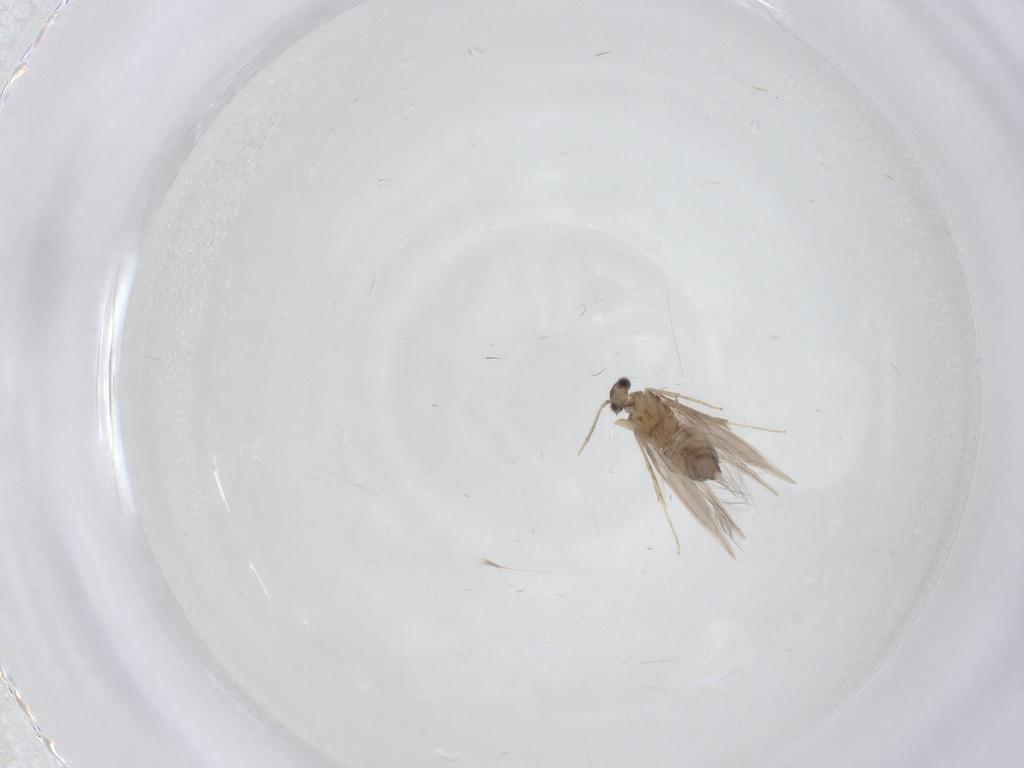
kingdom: Animalia
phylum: Arthropoda
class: Insecta
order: Trichoptera
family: Hydroptilidae
